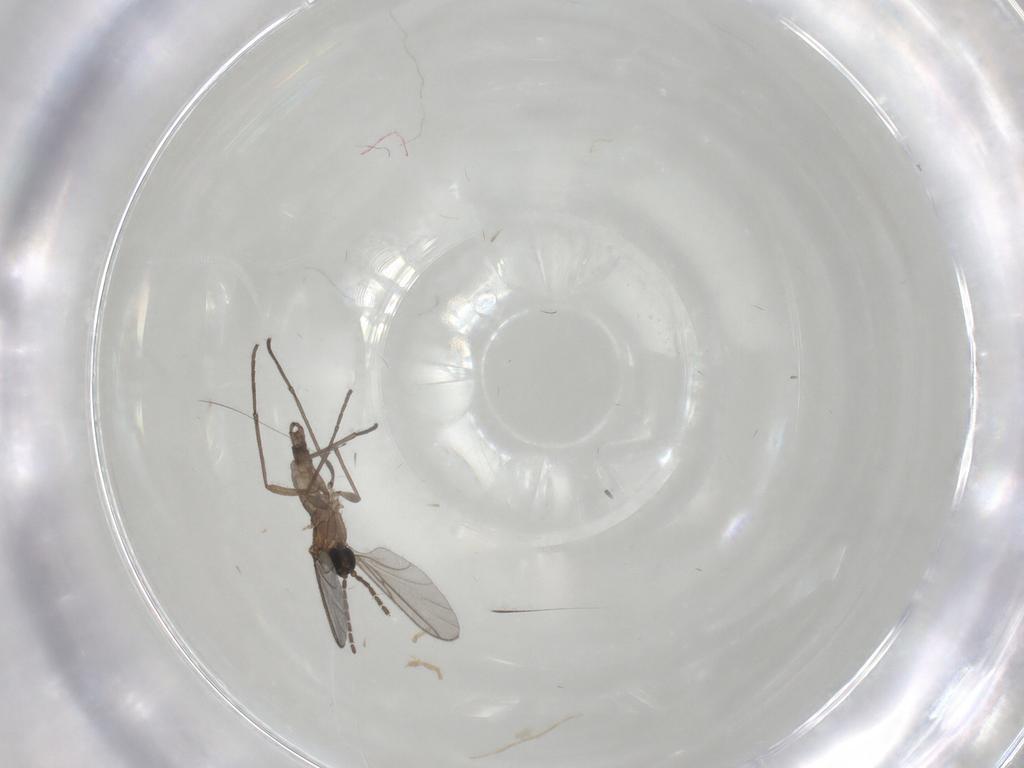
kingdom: Animalia
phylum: Arthropoda
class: Insecta
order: Diptera
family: Sciaridae
